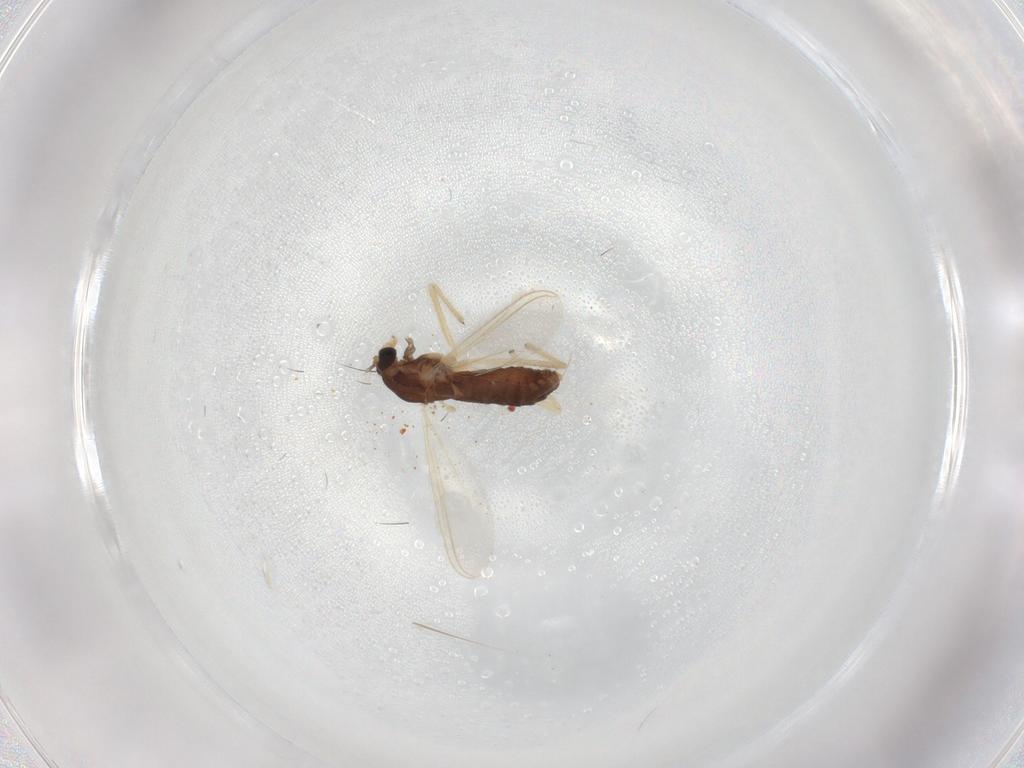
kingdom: Animalia
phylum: Arthropoda
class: Insecta
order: Diptera
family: Chironomidae
